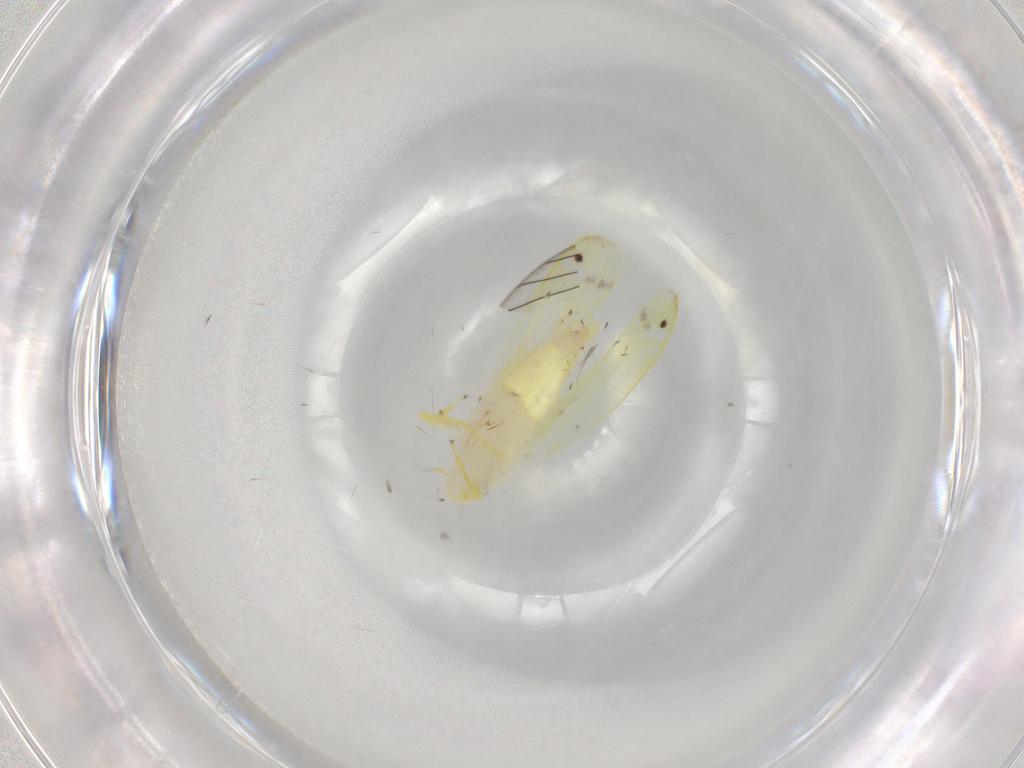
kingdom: Animalia
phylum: Arthropoda
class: Insecta
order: Hemiptera
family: Cicadellidae
